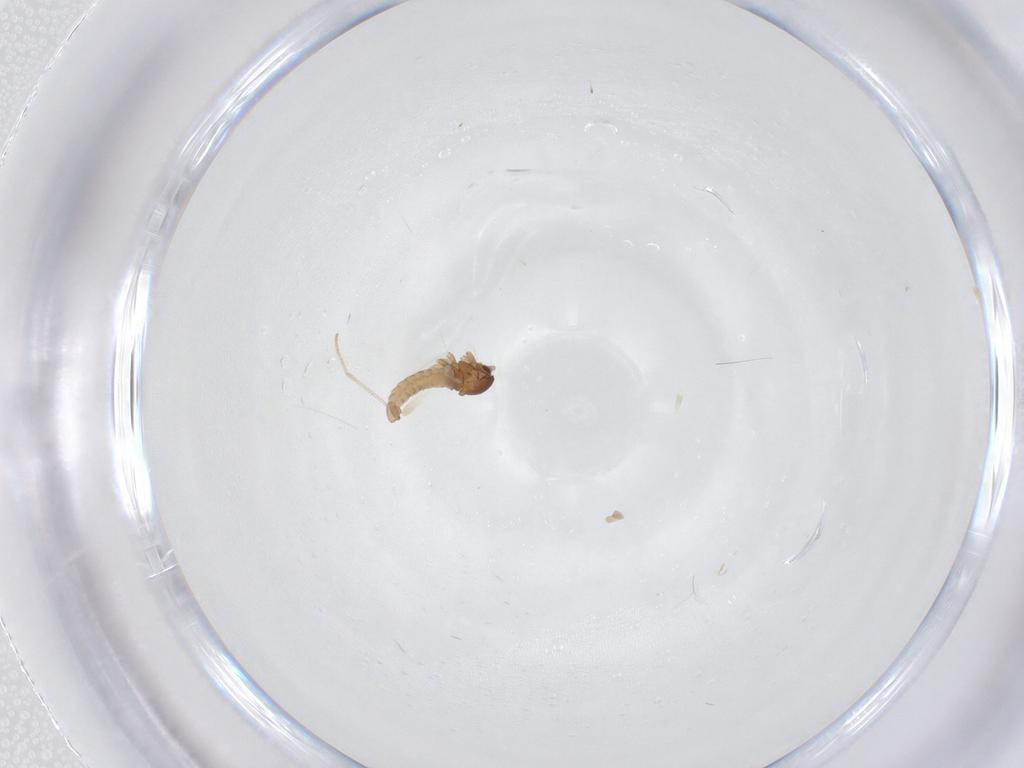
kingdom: Animalia
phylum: Arthropoda
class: Insecta
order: Diptera
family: Cecidomyiidae
